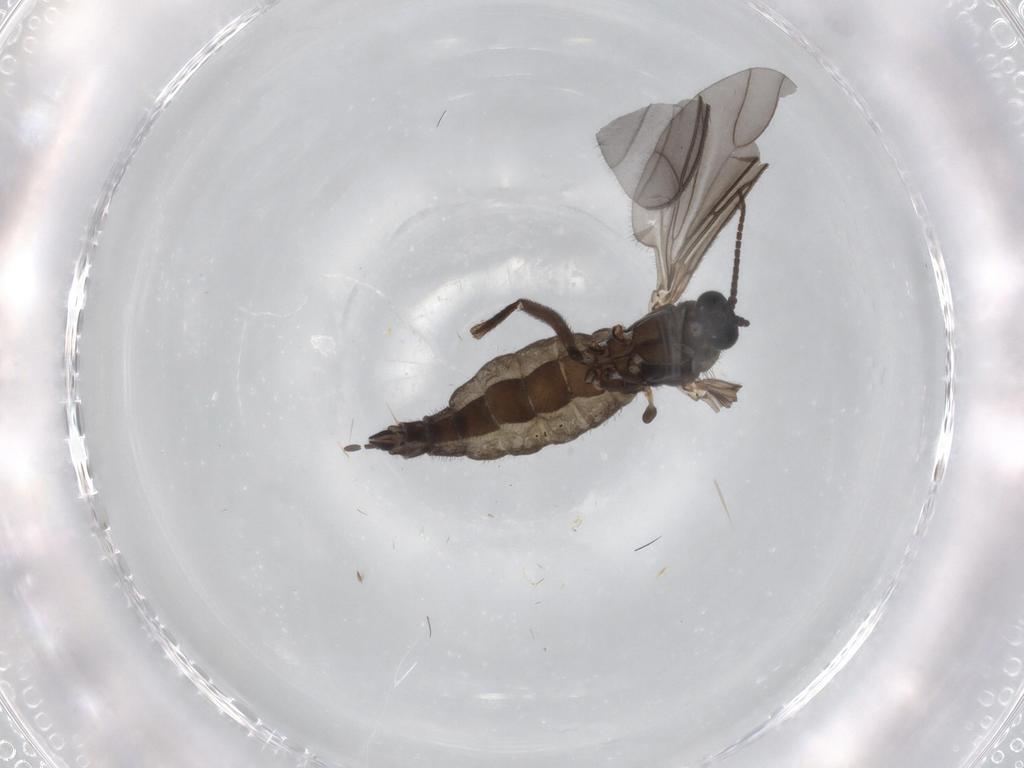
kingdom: Animalia
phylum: Arthropoda
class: Insecta
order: Diptera
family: Sciaridae
